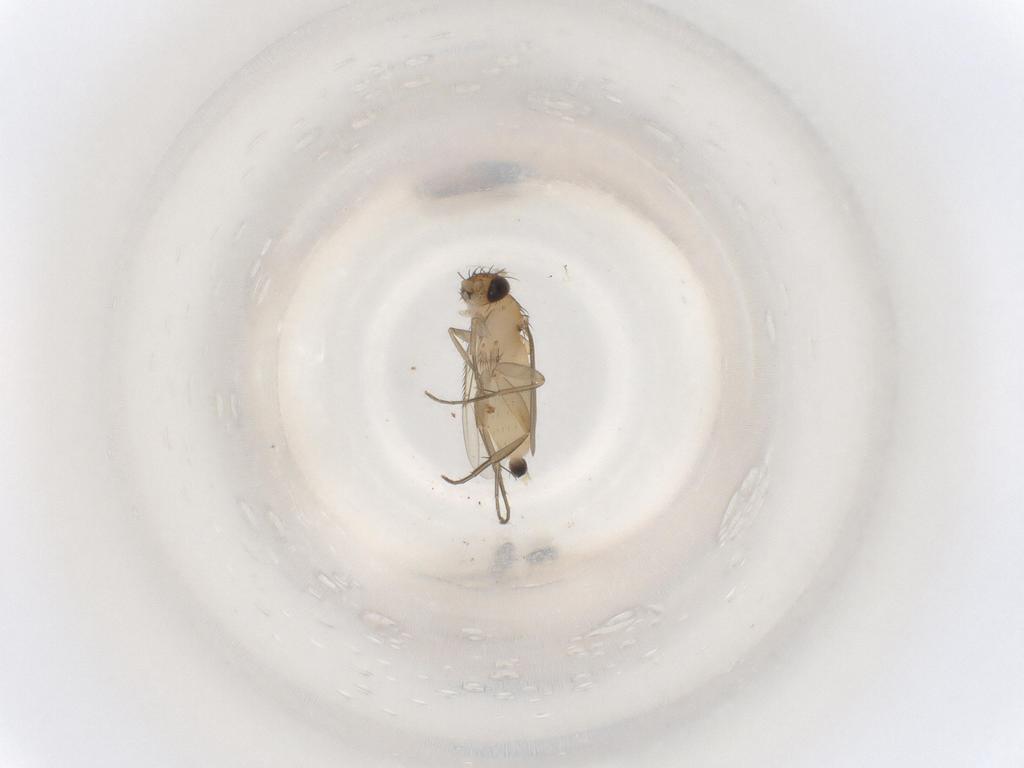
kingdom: Animalia
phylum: Arthropoda
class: Insecta
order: Diptera
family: Phoridae
